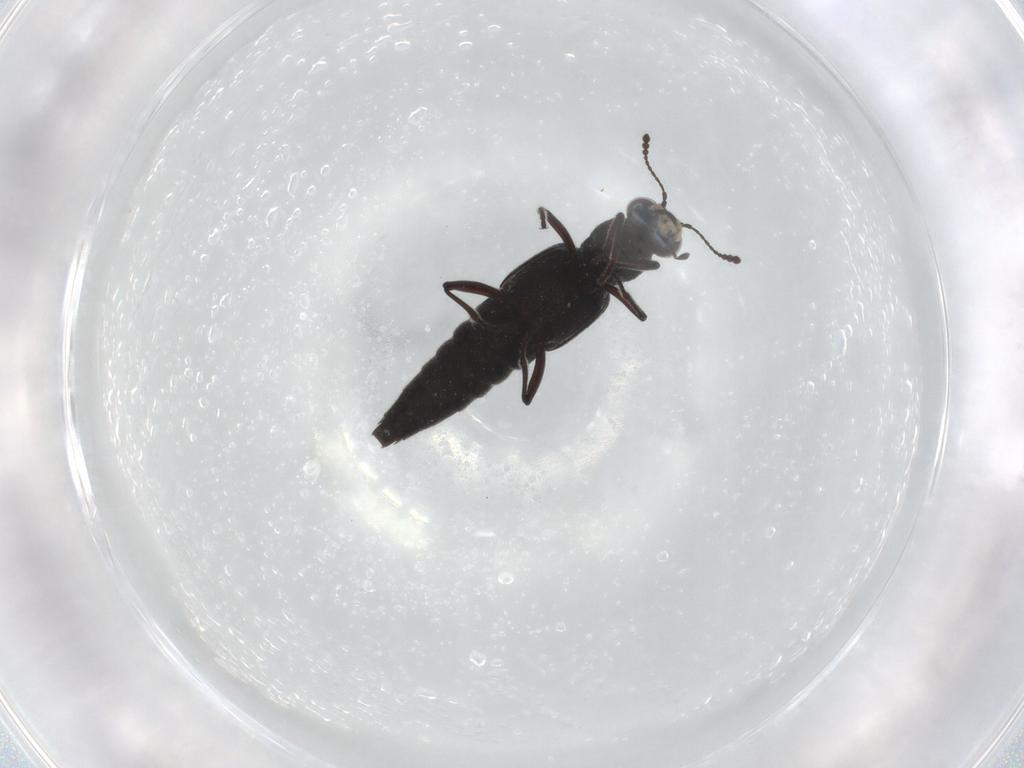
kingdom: Animalia
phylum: Arthropoda
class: Insecta
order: Coleoptera
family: Staphylinidae
